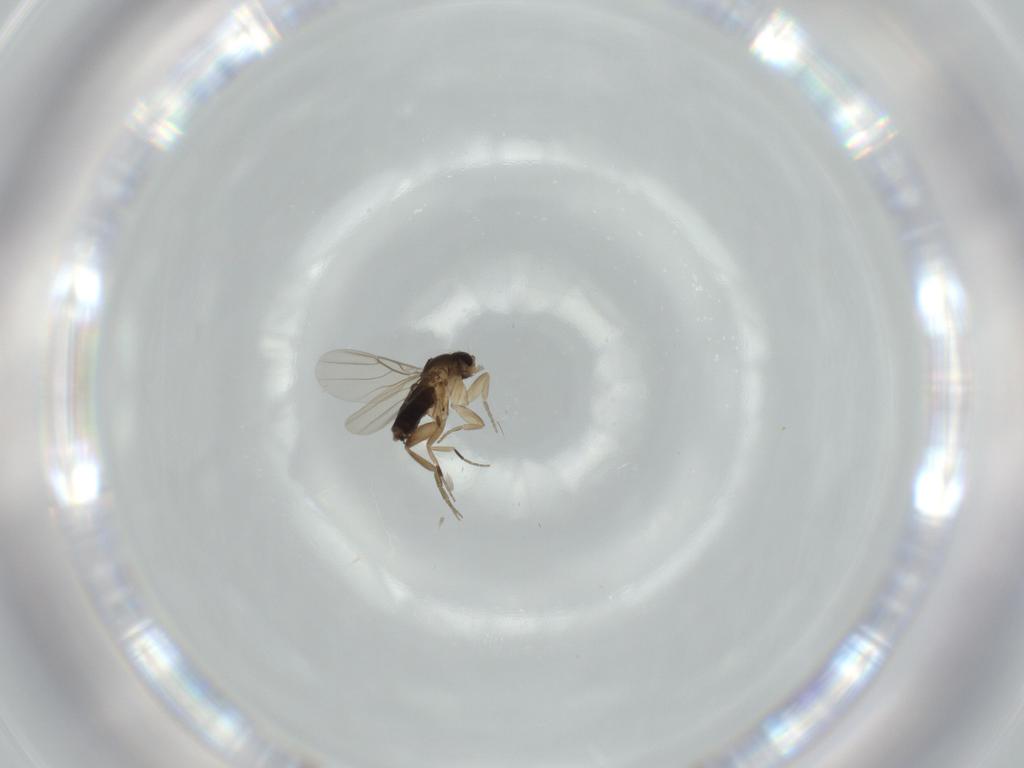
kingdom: Animalia
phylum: Arthropoda
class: Insecta
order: Diptera
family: Phoridae
